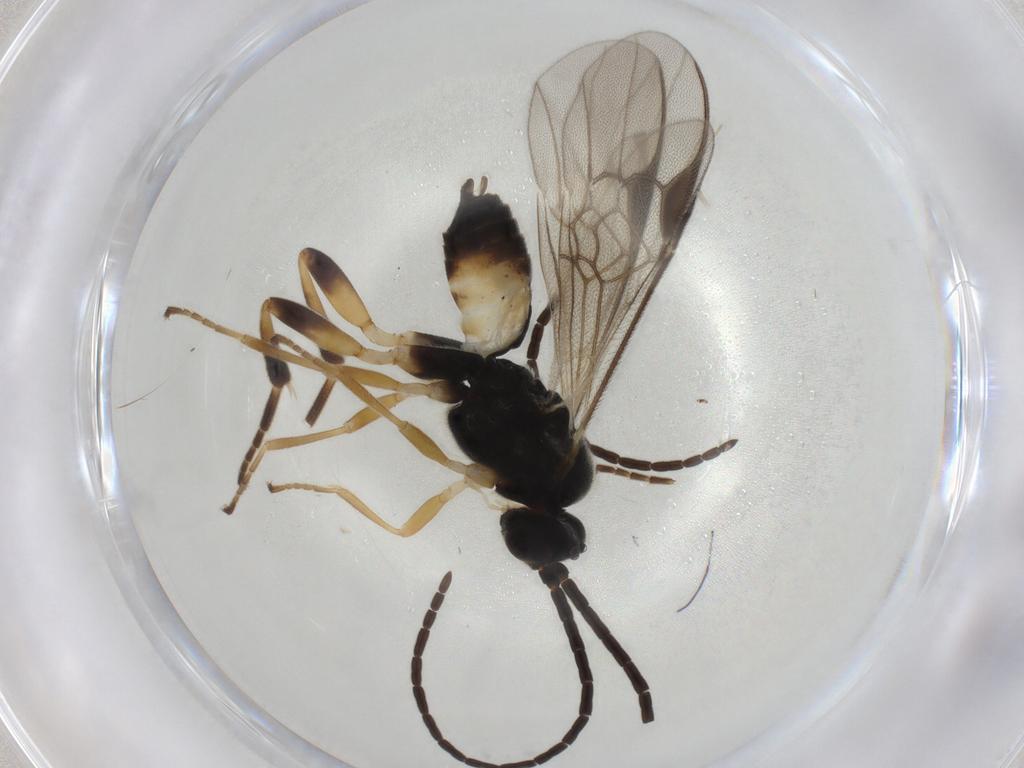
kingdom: Animalia
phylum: Arthropoda
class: Insecta
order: Hymenoptera
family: Braconidae
